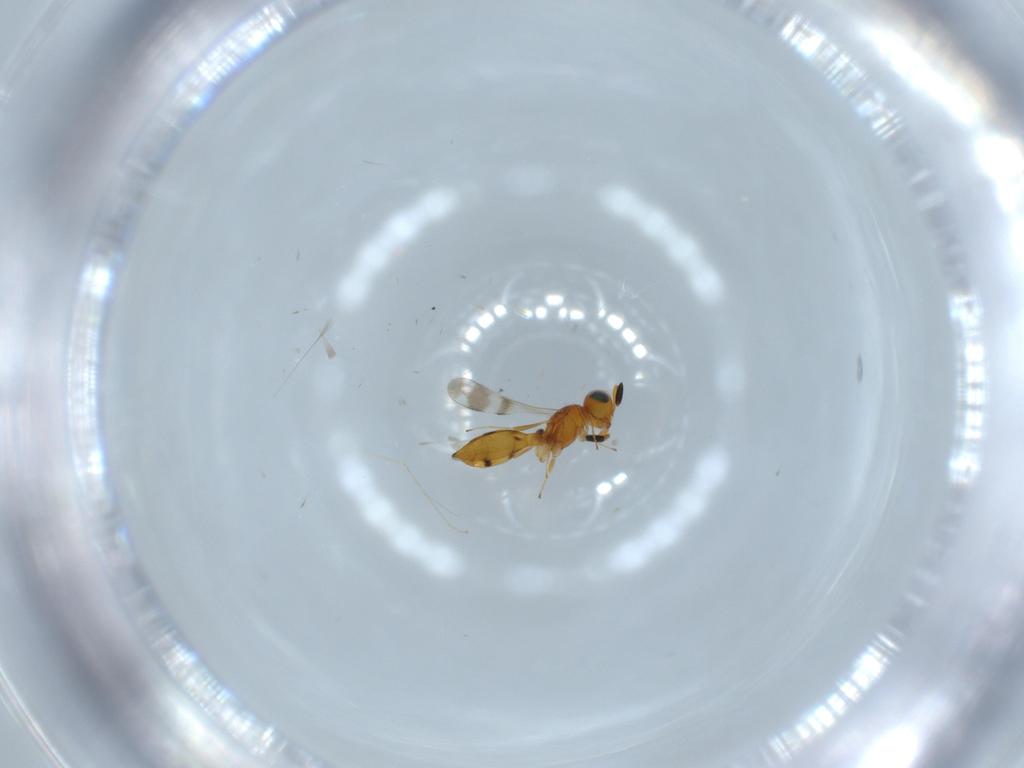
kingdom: Animalia
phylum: Arthropoda
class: Insecta
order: Hymenoptera
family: Scelionidae
